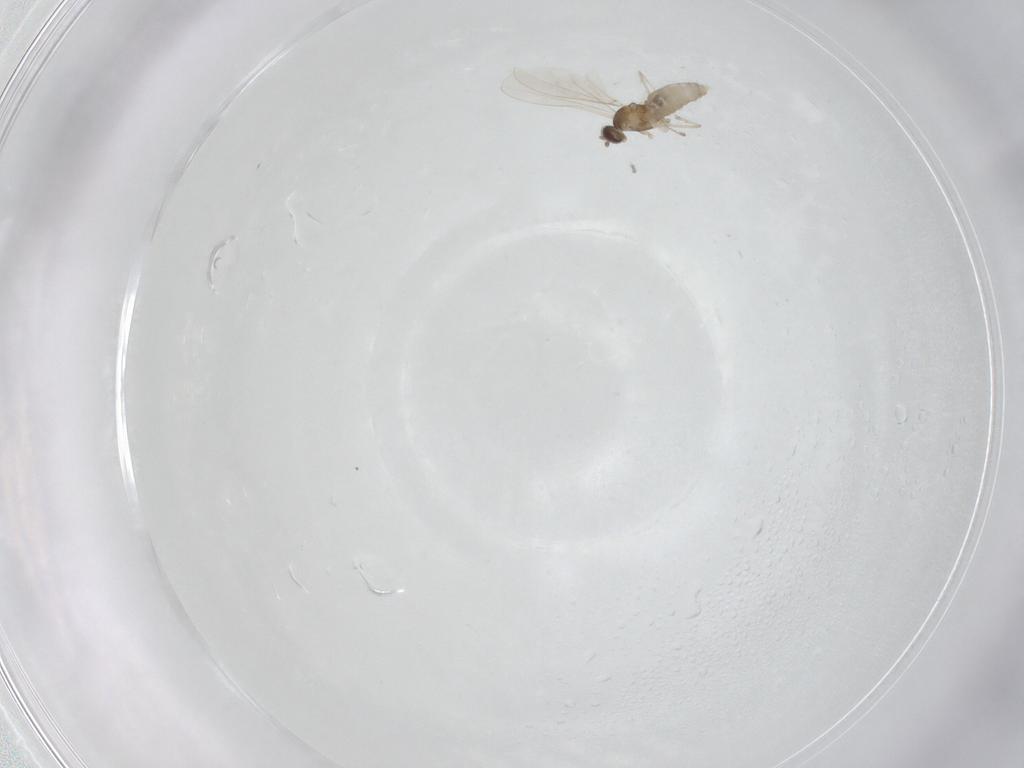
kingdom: Animalia
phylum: Arthropoda
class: Insecta
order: Diptera
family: Cecidomyiidae
